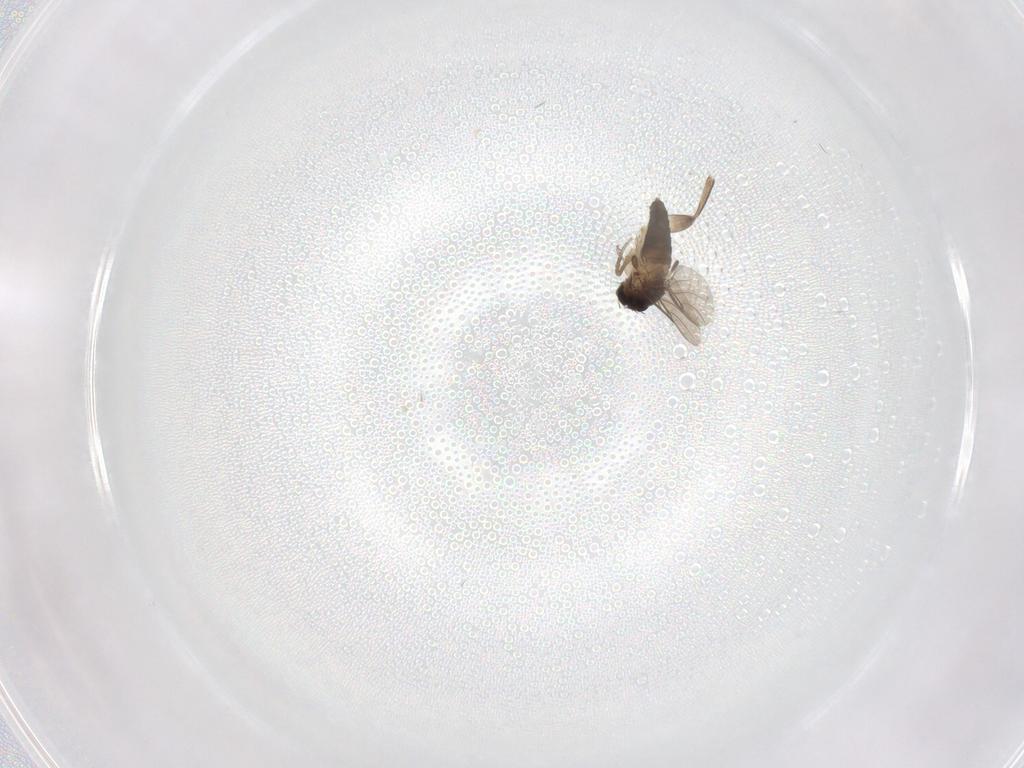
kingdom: Animalia
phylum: Arthropoda
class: Insecta
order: Diptera
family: Phoridae
